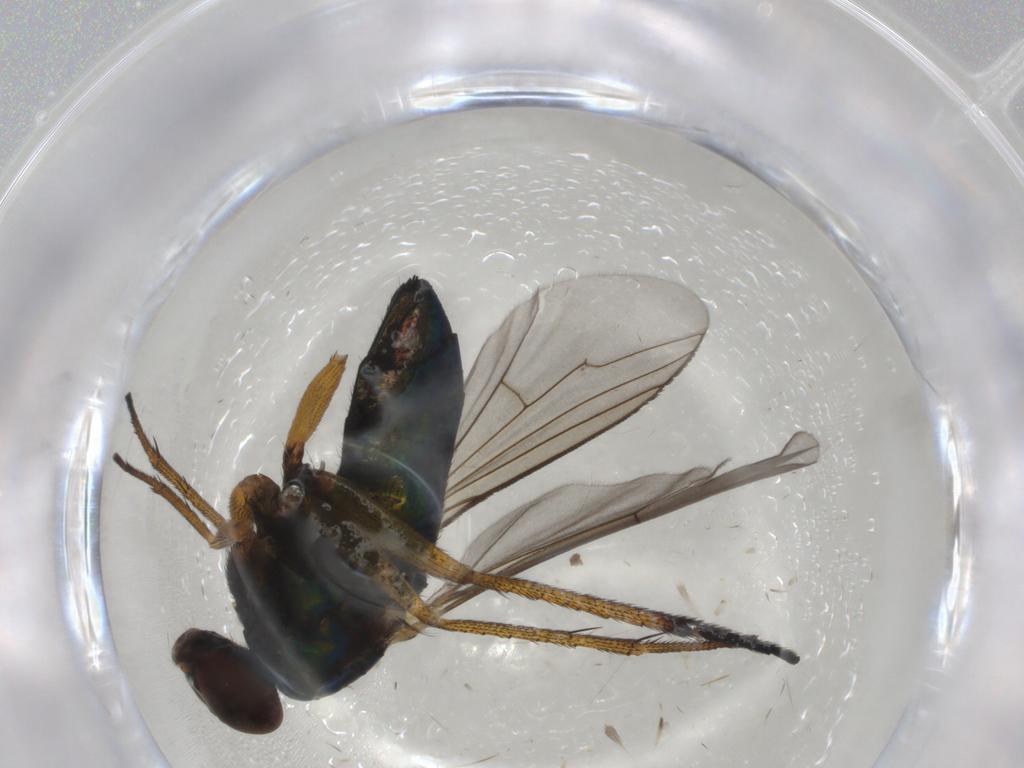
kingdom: Animalia
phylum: Arthropoda
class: Insecta
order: Diptera
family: Dolichopodidae
